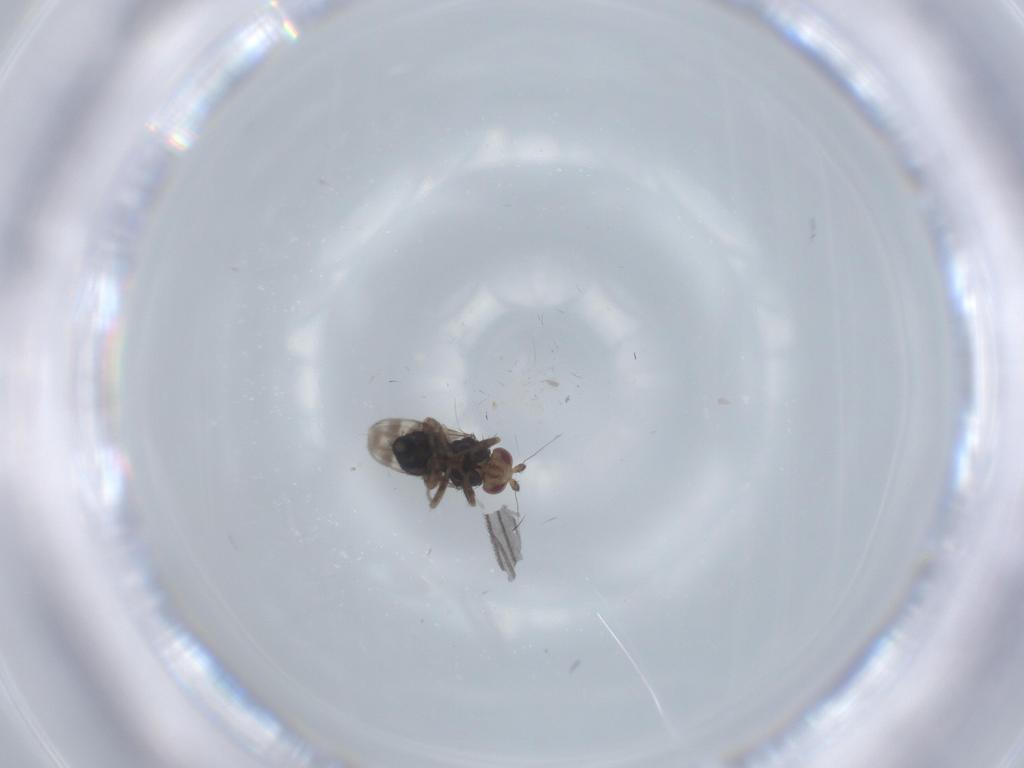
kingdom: Animalia
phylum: Arthropoda
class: Insecta
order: Diptera
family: Sphaeroceridae
